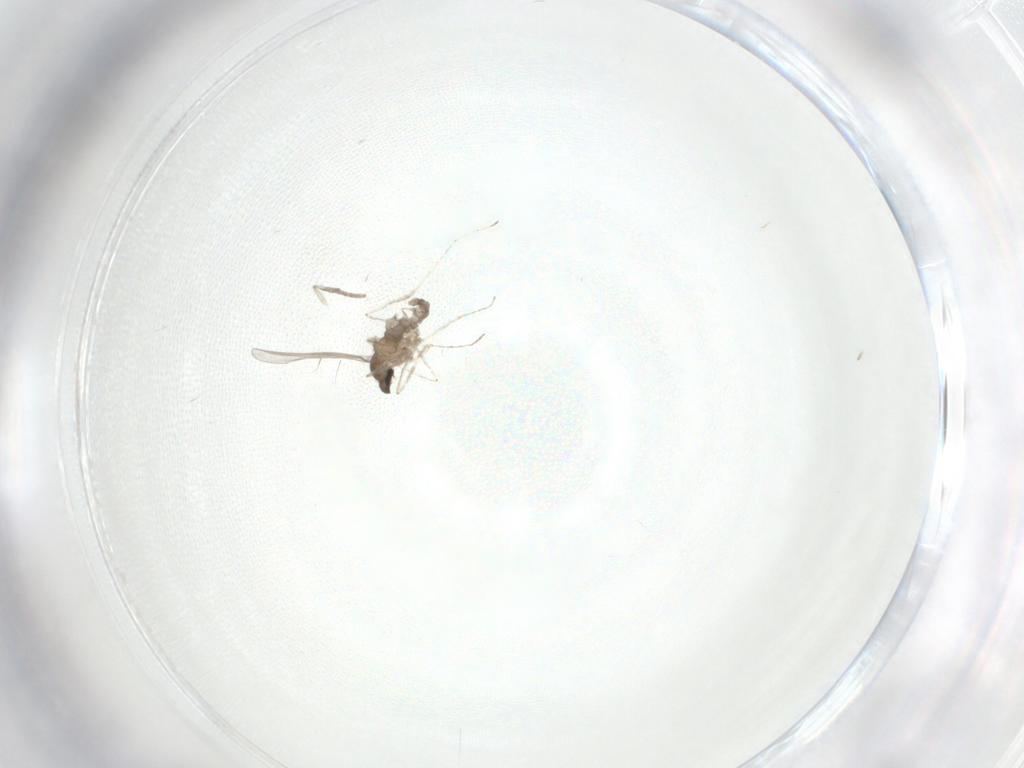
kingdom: Animalia
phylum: Arthropoda
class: Insecta
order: Diptera
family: Psychodidae
